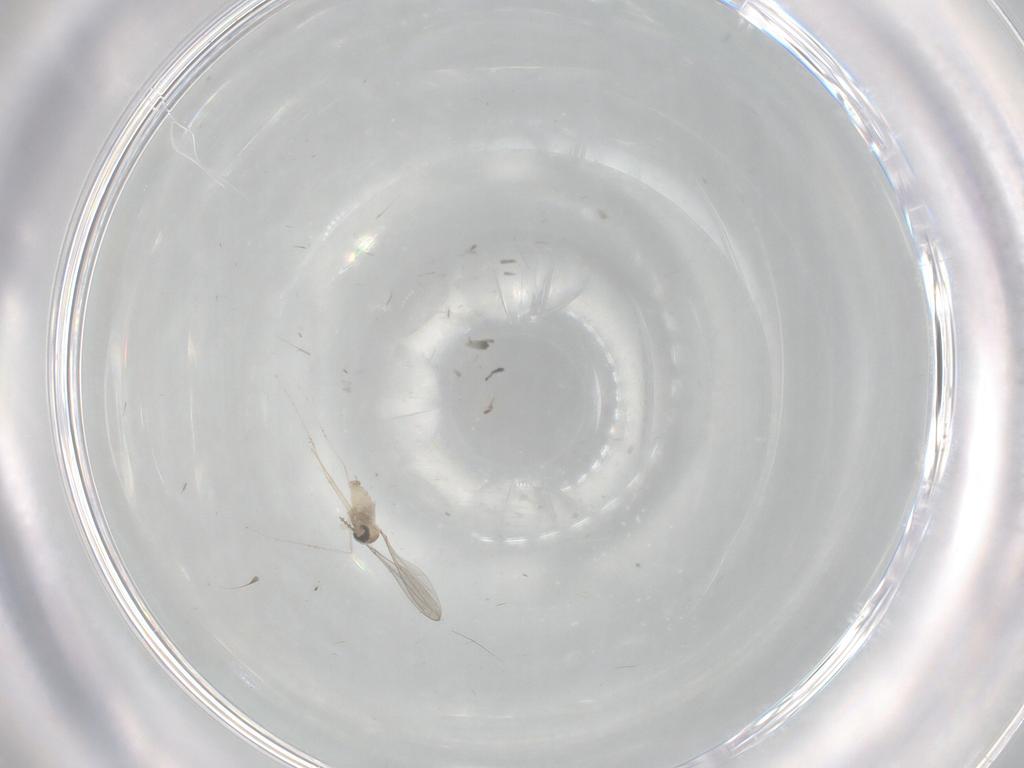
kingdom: Animalia
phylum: Arthropoda
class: Insecta
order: Diptera
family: Cecidomyiidae
